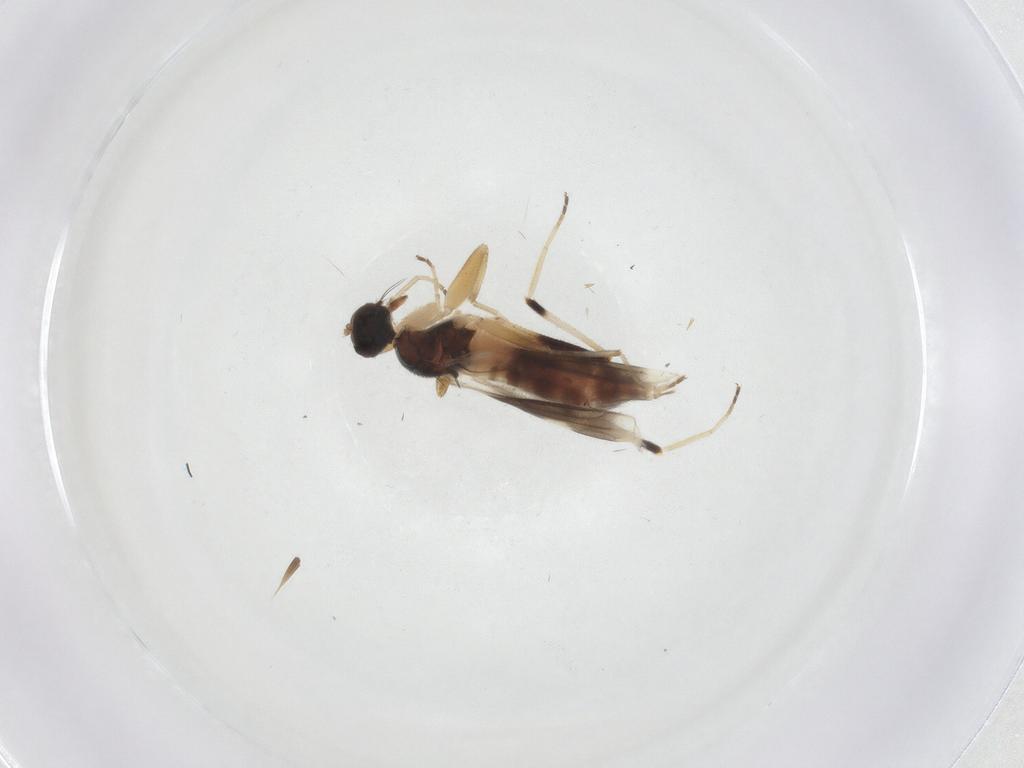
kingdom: Animalia
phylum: Arthropoda
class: Insecta
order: Diptera
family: Hybotidae
